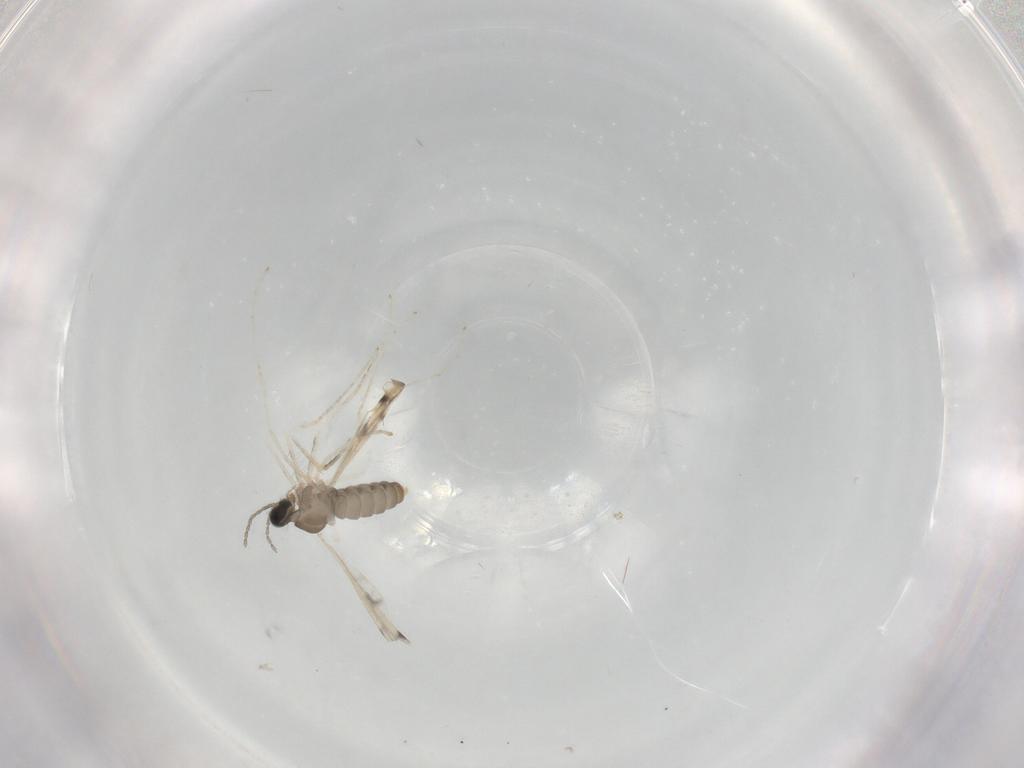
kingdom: Animalia
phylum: Arthropoda
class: Insecta
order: Diptera
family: Cecidomyiidae
